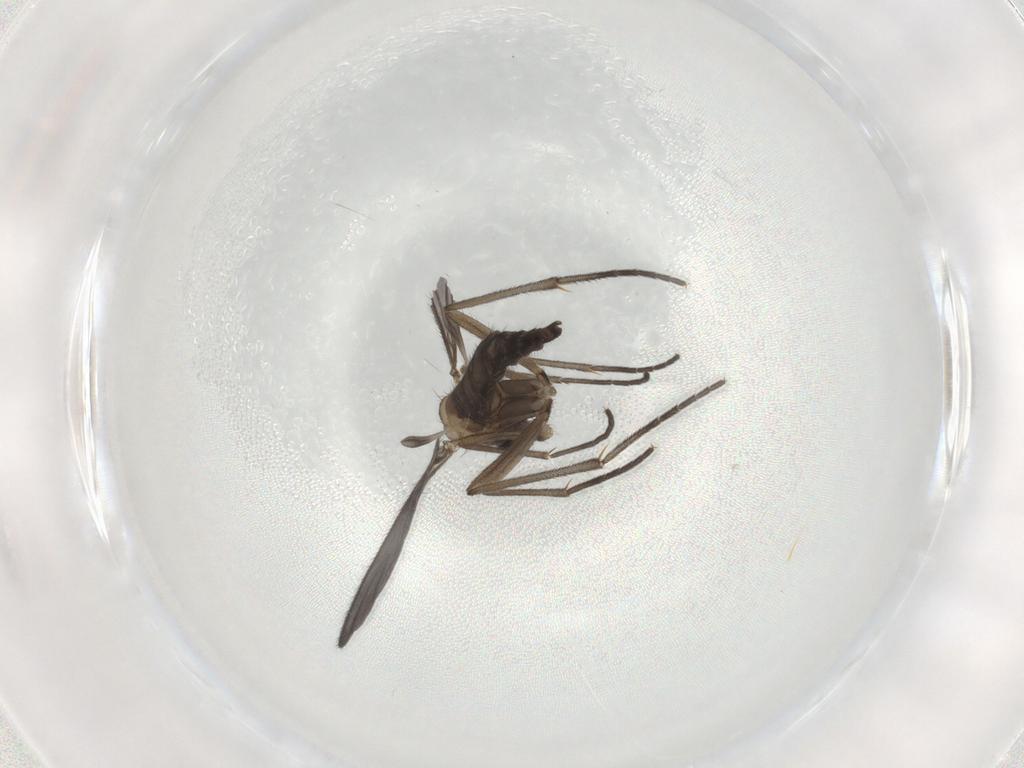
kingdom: Animalia
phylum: Arthropoda
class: Insecta
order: Diptera
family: Sciaridae
